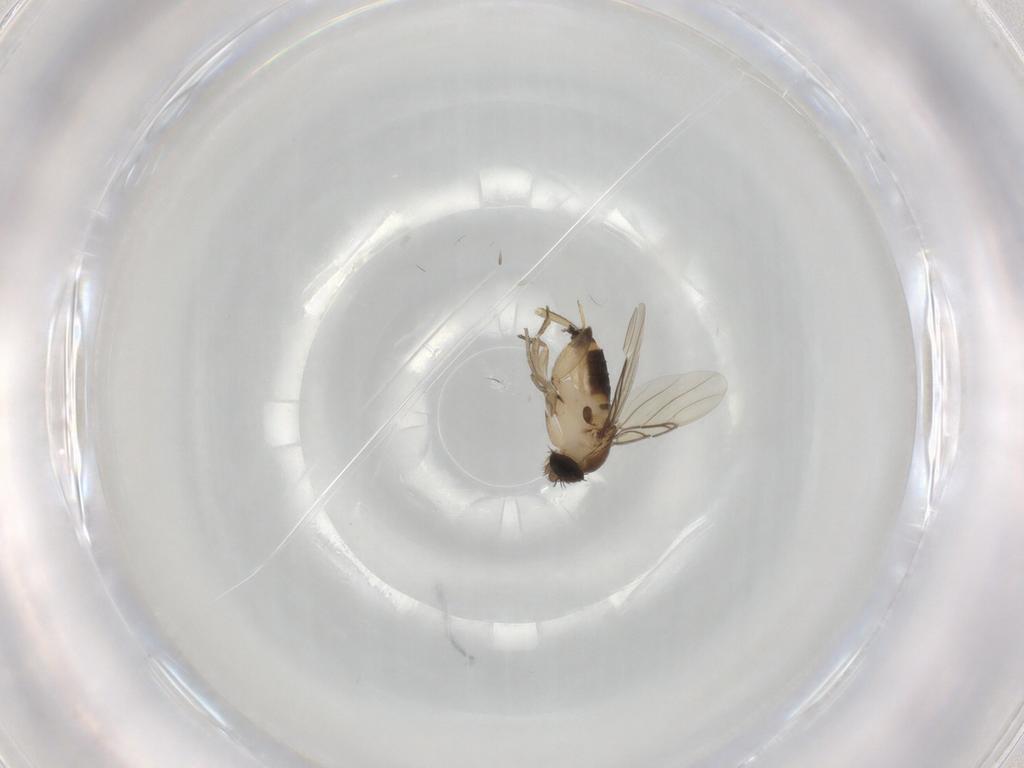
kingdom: Animalia
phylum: Arthropoda
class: Insecta
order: Diptera
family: Phoridae
